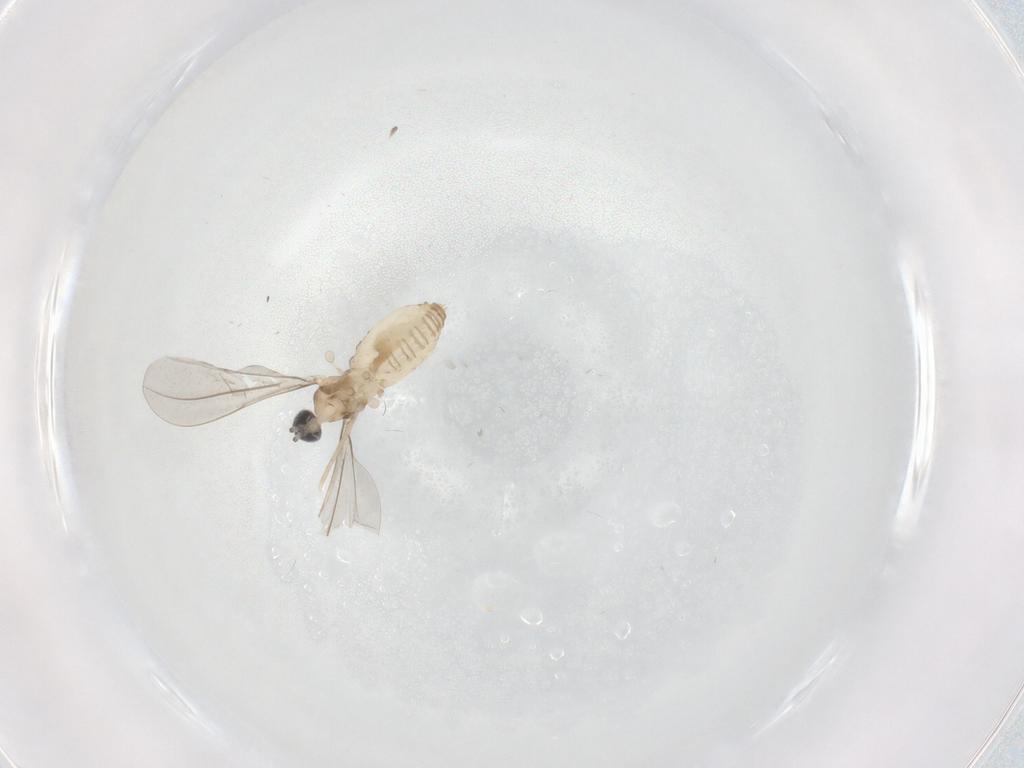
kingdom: Animalia
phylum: Arthropoda
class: Insecta
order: Diptera
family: Cecidomyiidae
